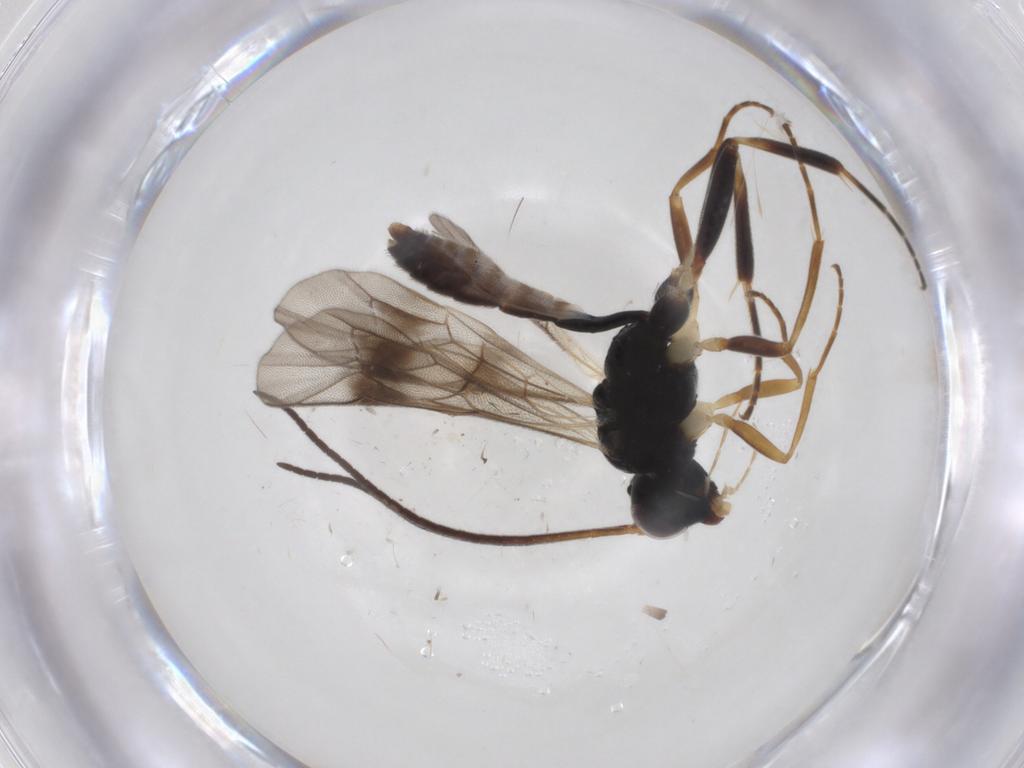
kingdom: Animalia
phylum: Arthropoda
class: Insecta
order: Hymenoptera
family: Ichneumonidae
